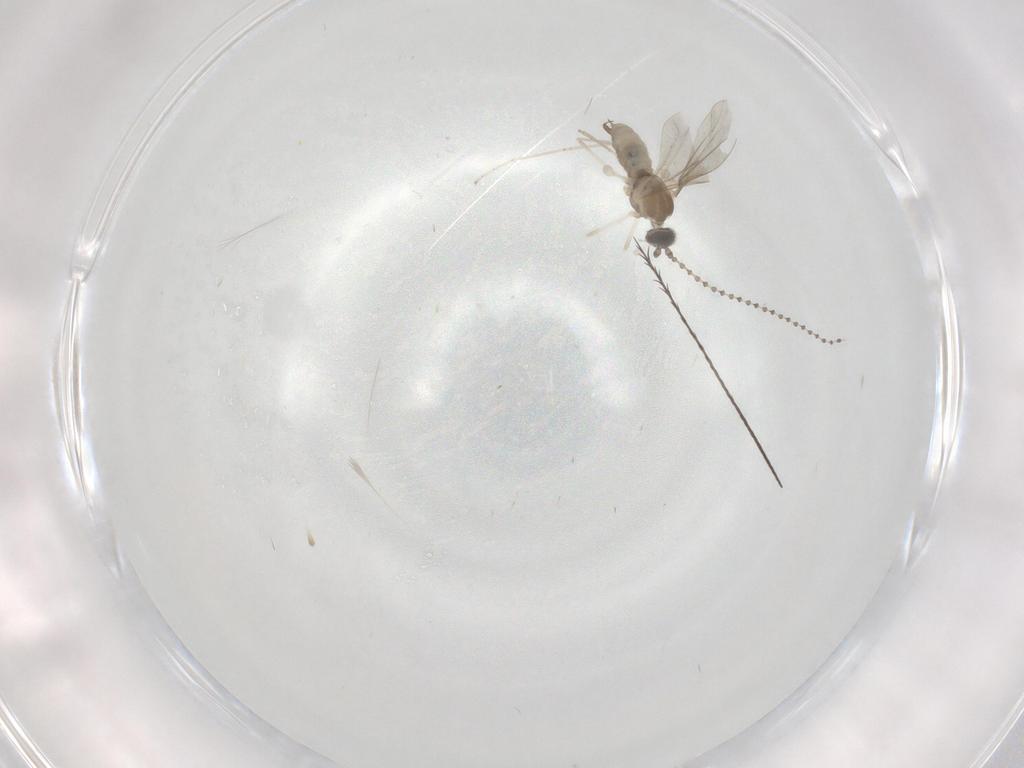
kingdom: Animalia
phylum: Arthropoda
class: Insecta
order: Diptera
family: Cecidomyiidae
